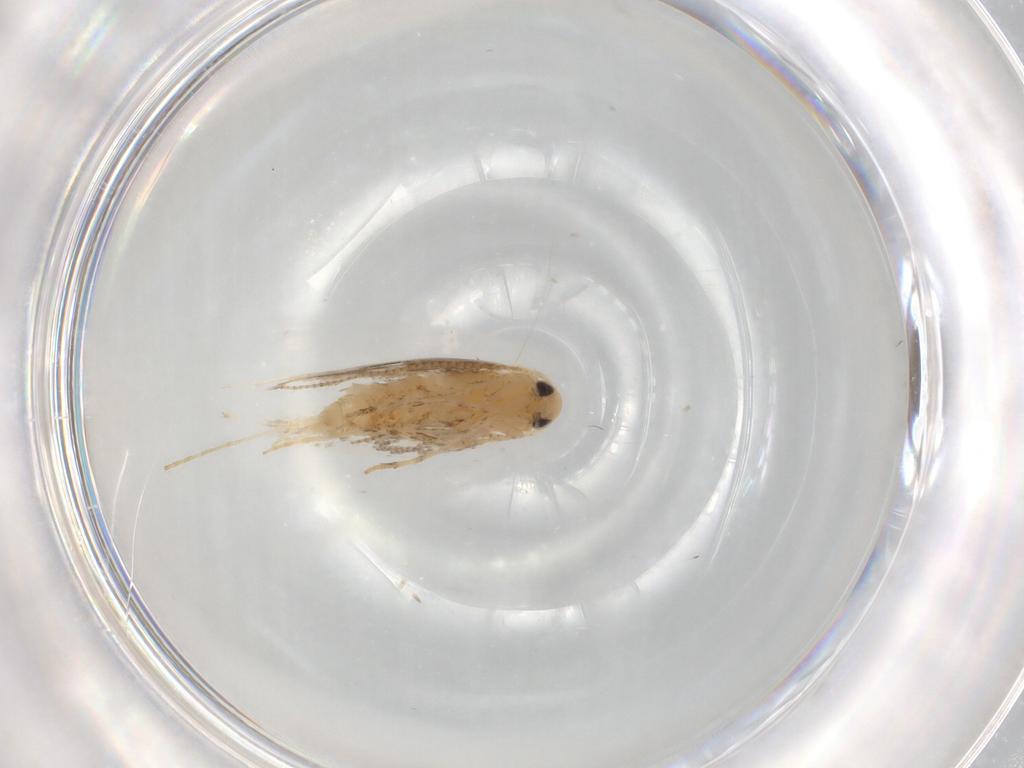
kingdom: Animalia
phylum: Arthropoda
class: Insecta
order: Lepidoptera
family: Gracillariidae
